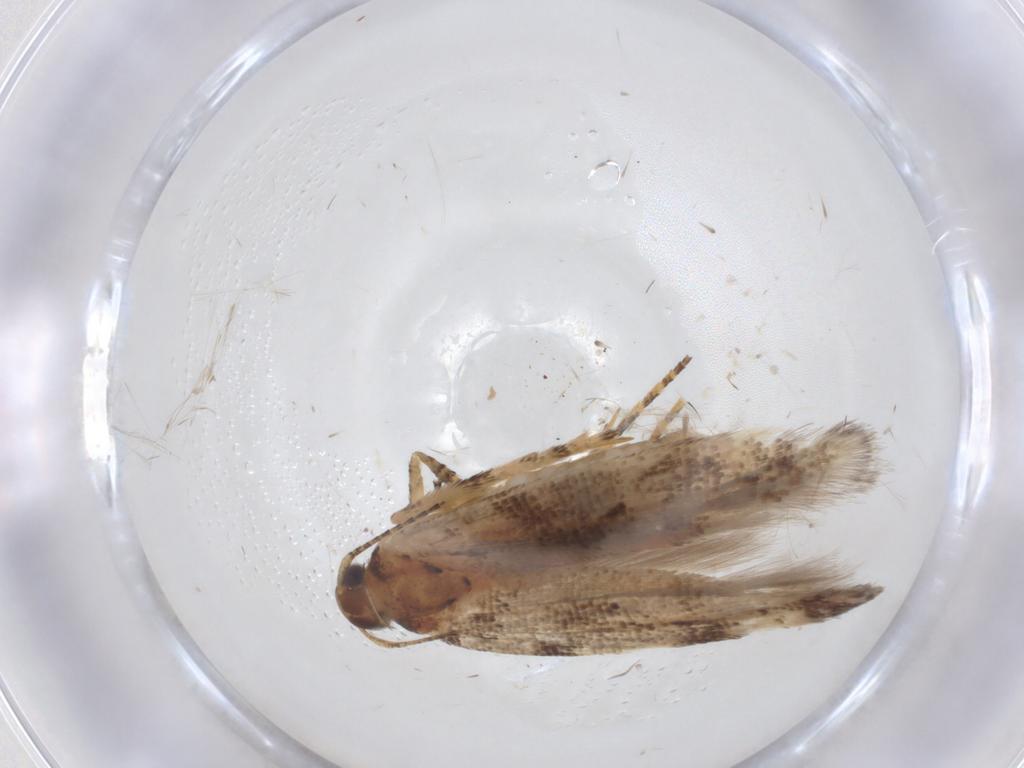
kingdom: Animalia
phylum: Arthropoda
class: Insecta
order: Lepidoptera
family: Gelechiidae
